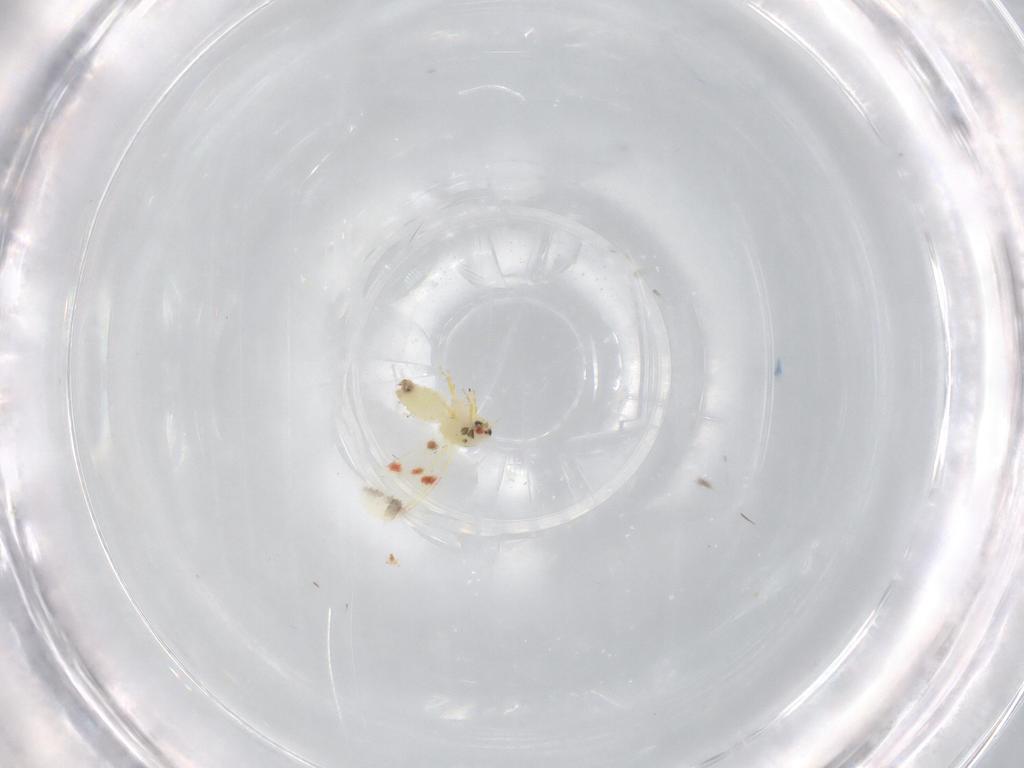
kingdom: Animalia
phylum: Arthropoda
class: Insecta
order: Hemiptera
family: Aleyrodidae
